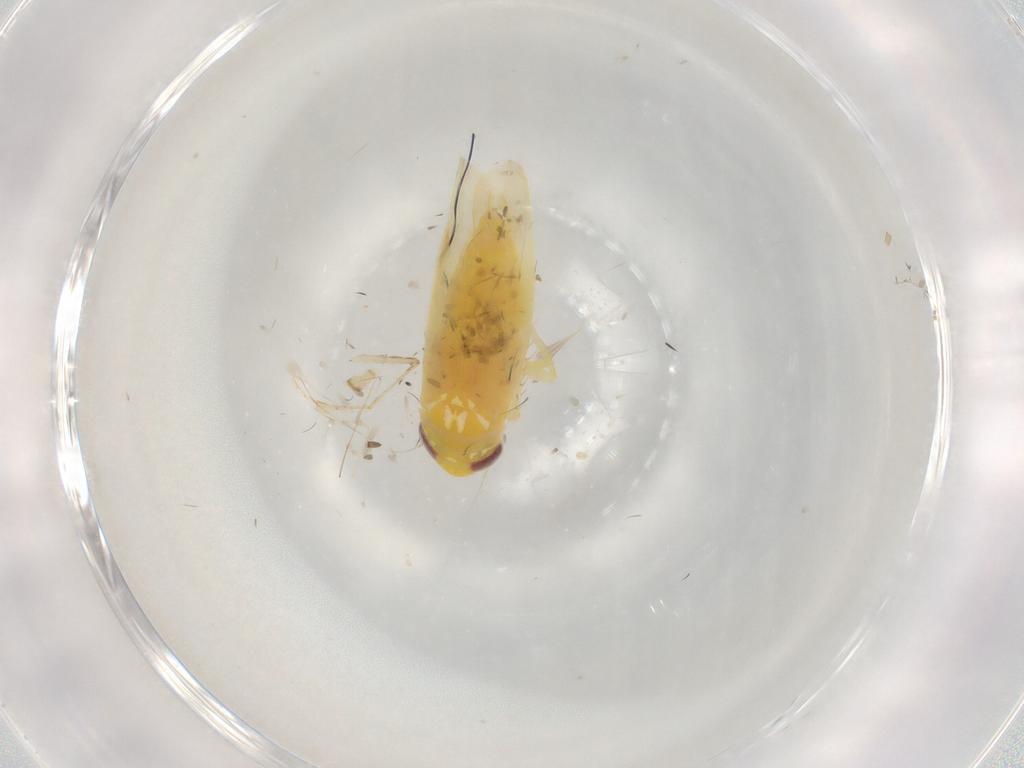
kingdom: Animalia
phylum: Arthropoda
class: Insecta
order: Hemiptera
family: Cicadellidae
